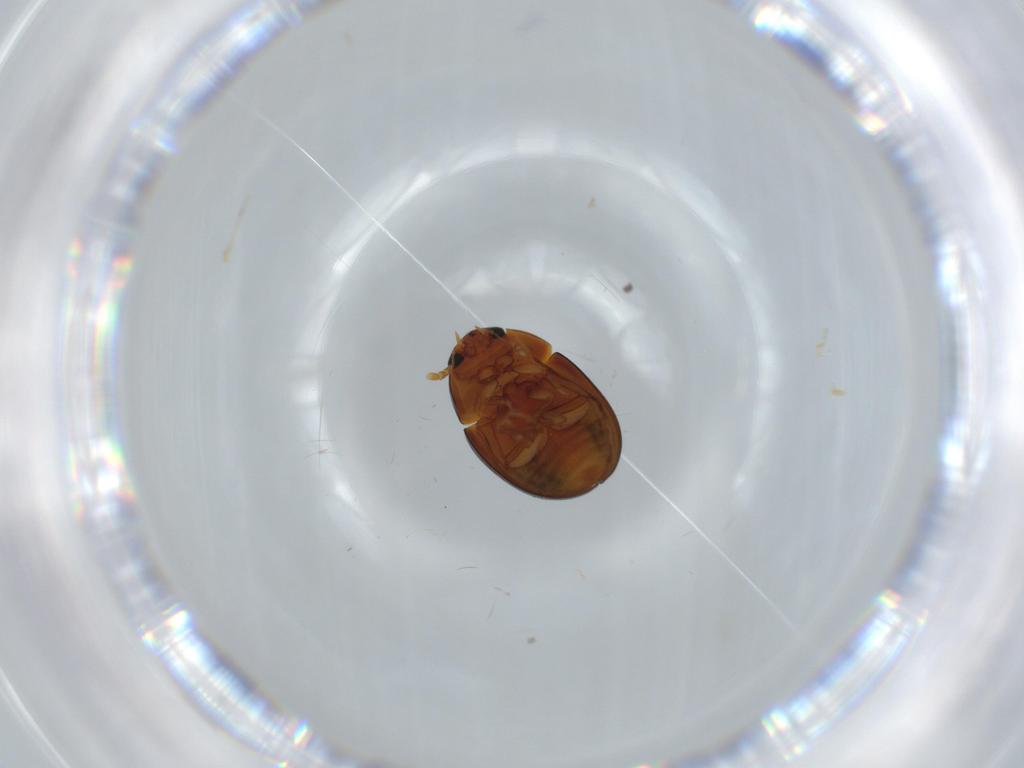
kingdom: Animalia
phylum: Arthropoda
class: Insecta
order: Coleoptera
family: Phalacridae
